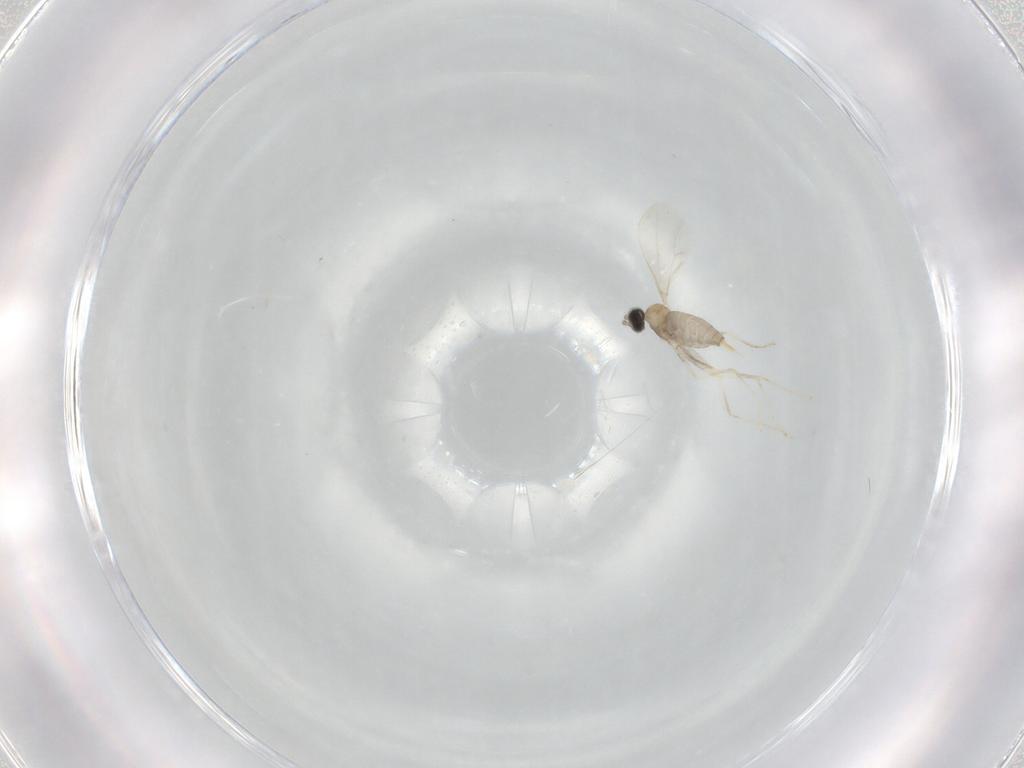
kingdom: Animalia
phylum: Arthropoda
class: Insecta
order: Diptera
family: Cecidomyiidae
